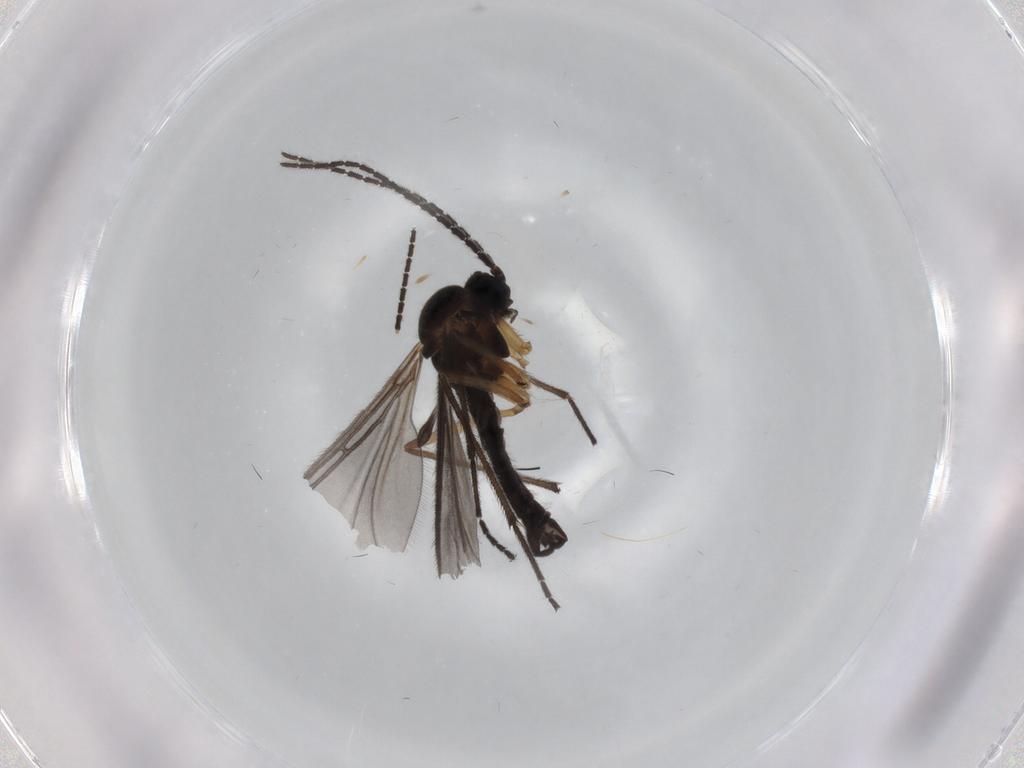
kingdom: Animalia
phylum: Arthropoda
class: Insecta
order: Diptera
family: Sciaridae
